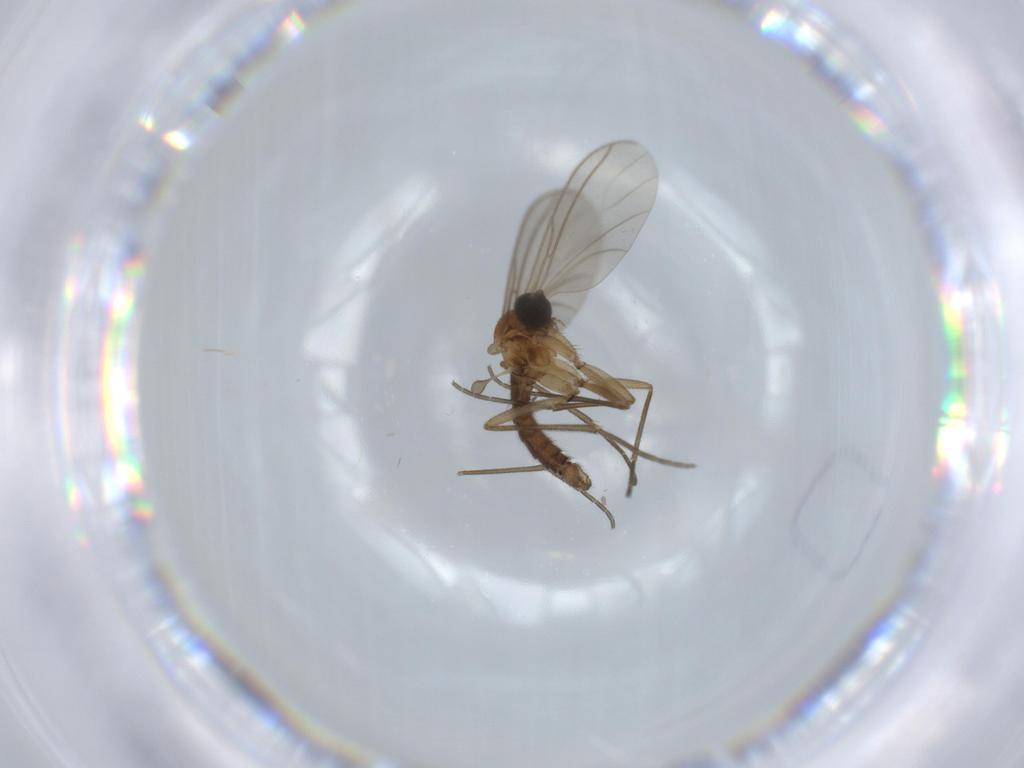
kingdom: Animalia
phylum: Arthropoda
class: Insecta
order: Diptera
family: Sciaridae
